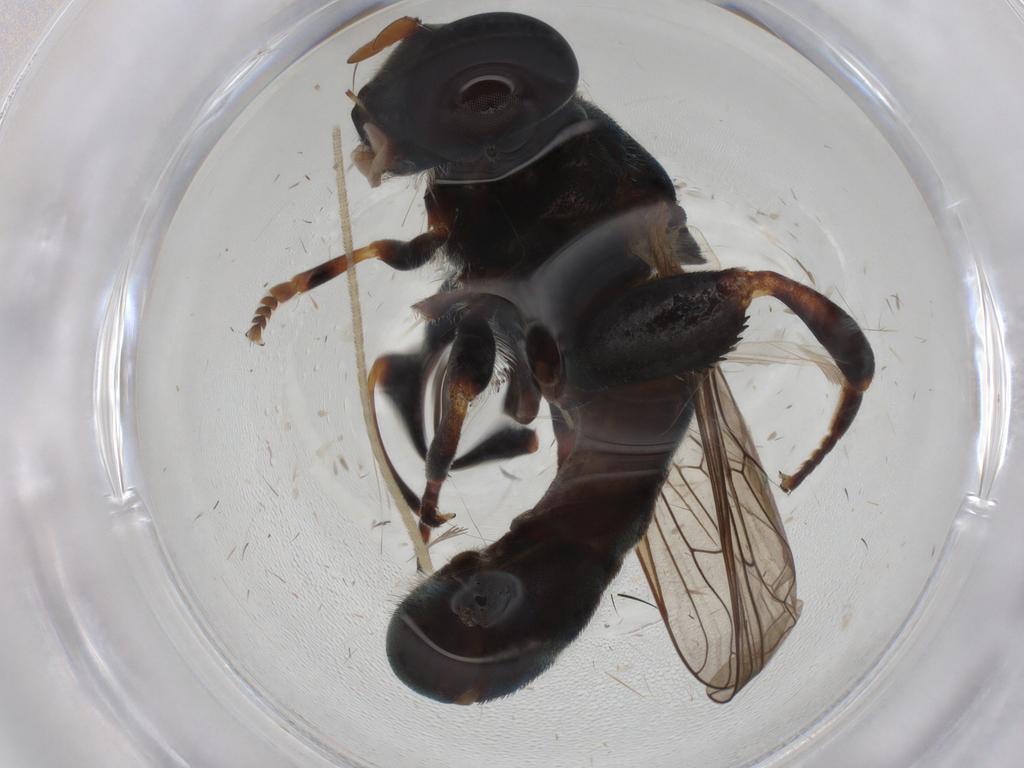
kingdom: Animalia
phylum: Arthropoda
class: Insecta
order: Diptera
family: Syrphidae
